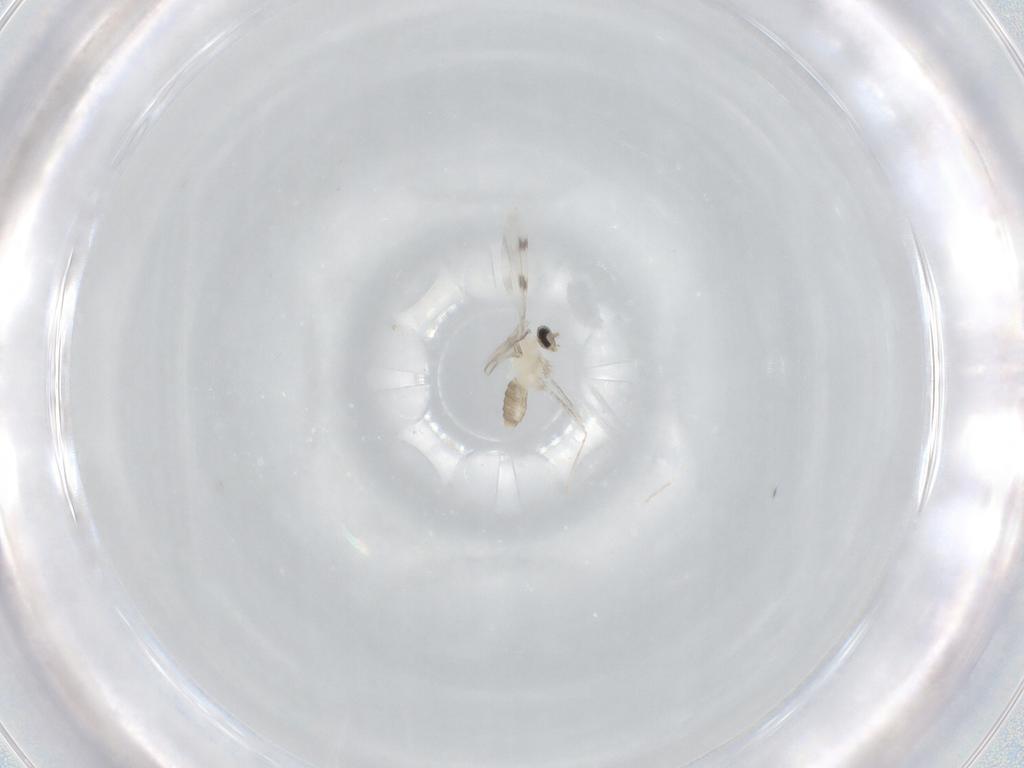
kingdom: Animalia
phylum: Arthropoda
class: Insecta
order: Diptera
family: Cecidomyiidae
